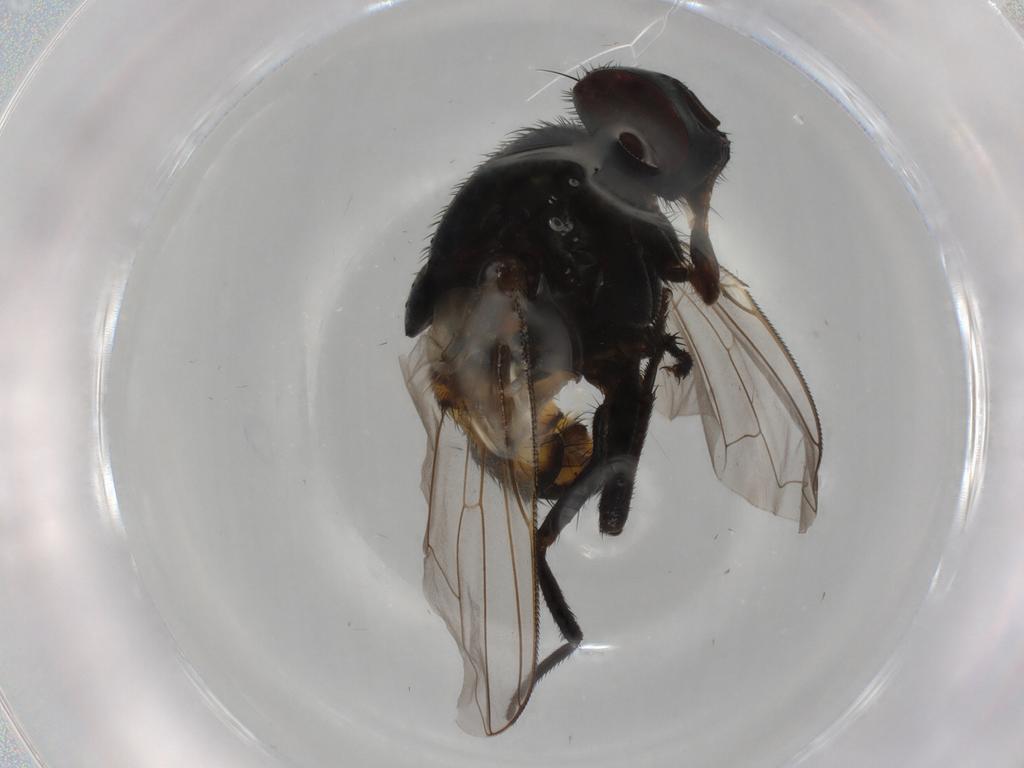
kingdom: Animalia
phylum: Arthropoda
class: Insecta
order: Diptera
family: Muscidae
